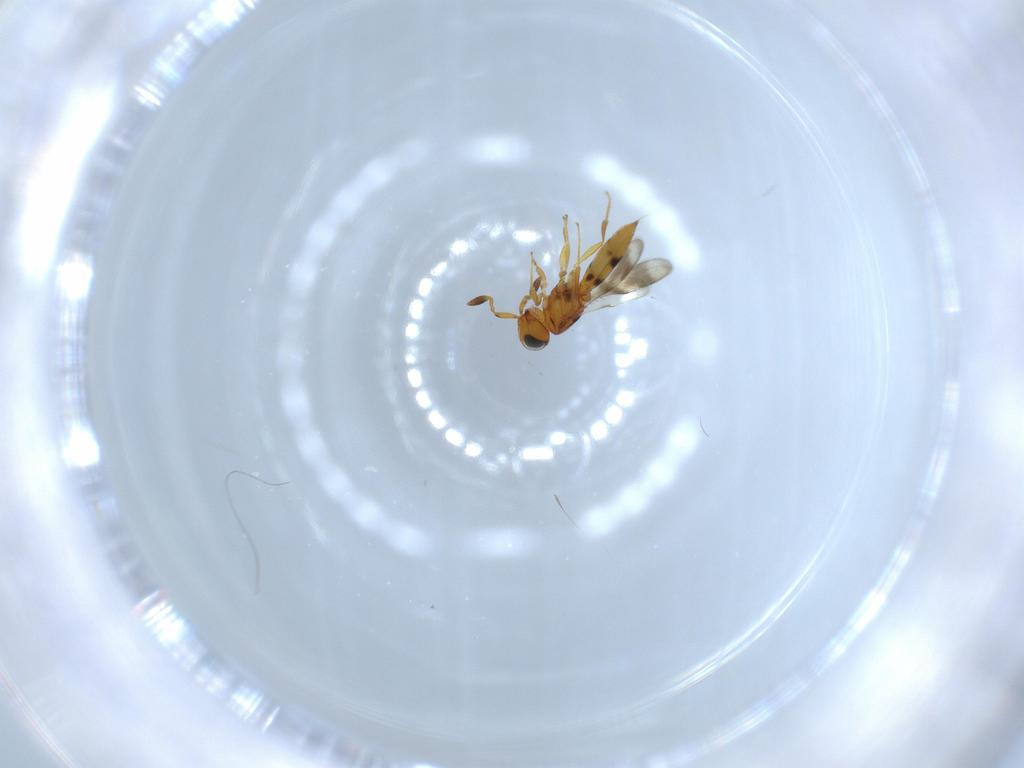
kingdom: Animalia
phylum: Arthropoda
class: Insecta
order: Hymenoptera
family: Scelionidae
